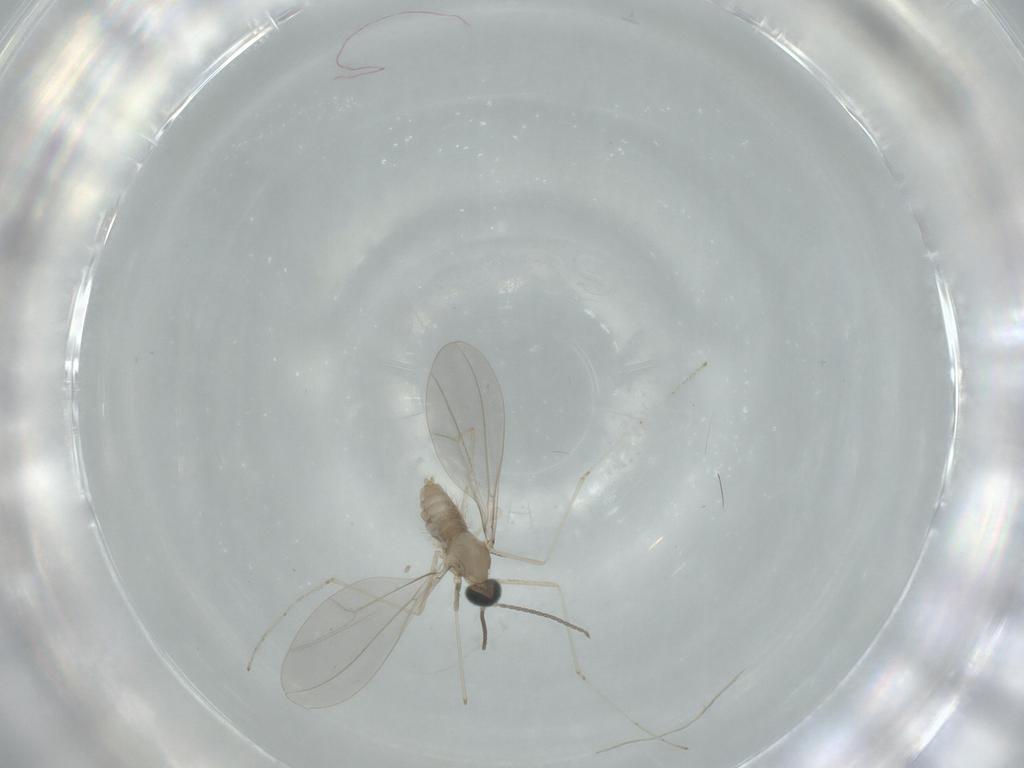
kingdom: Animalia
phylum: Arthropoda
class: Insecta
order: Diptera
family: Cecidomyiidae
